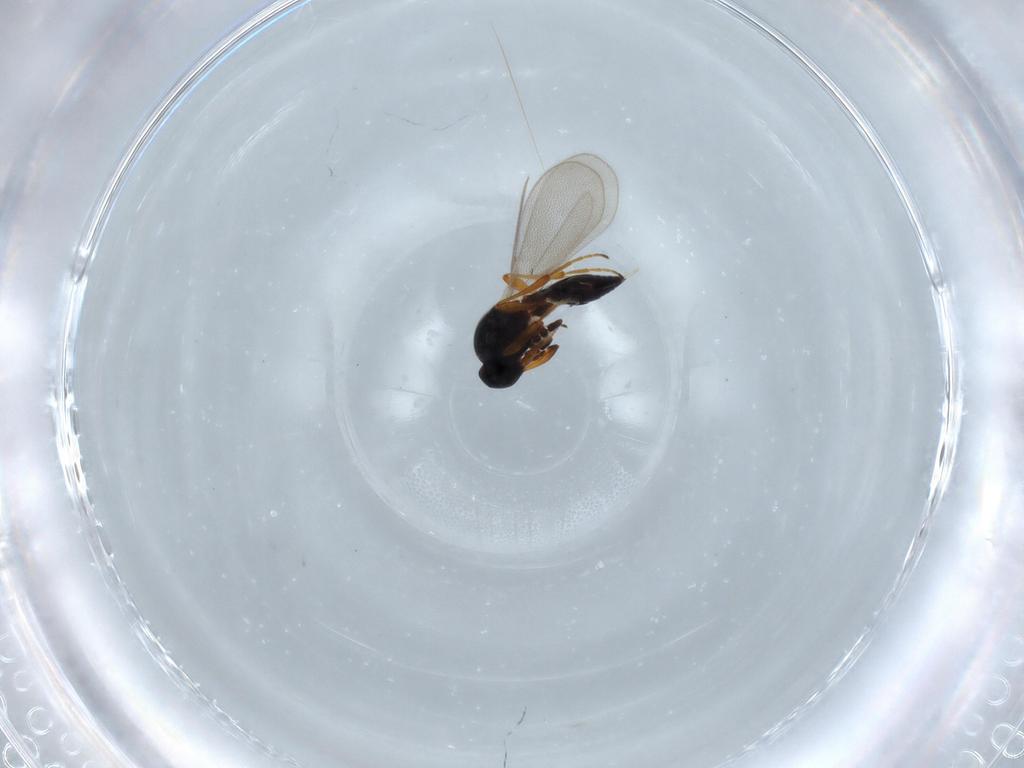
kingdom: Animalia
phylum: Arthropoda
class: Insecta
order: Hymenoptera
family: Platygastridae
